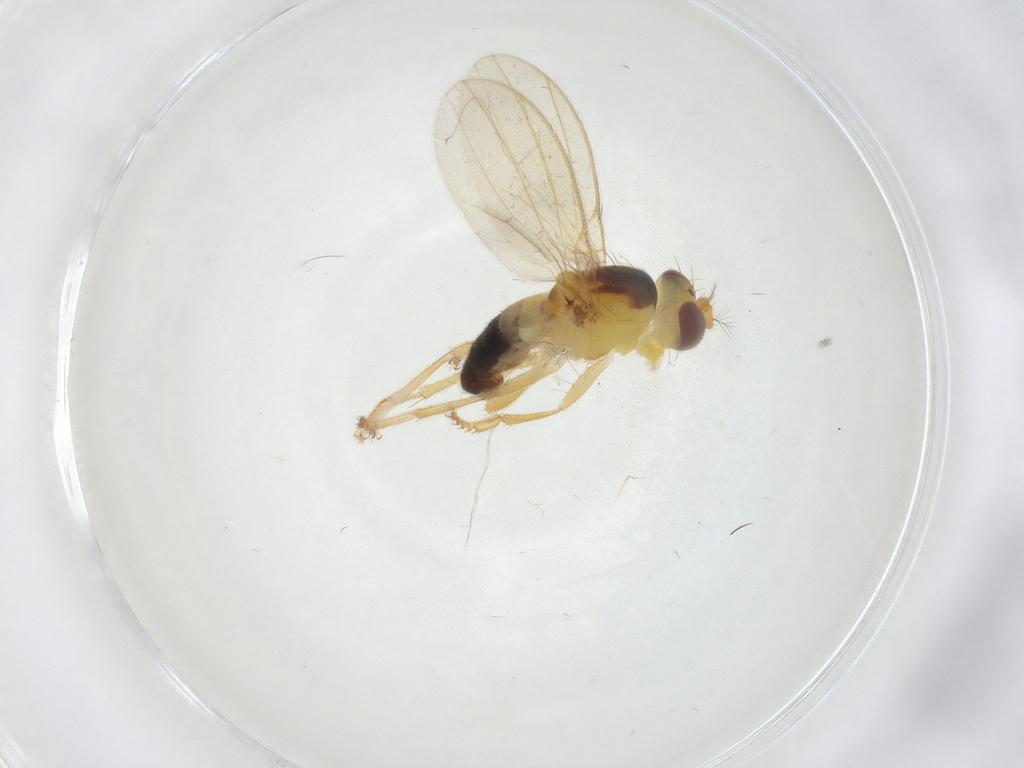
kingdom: Animalia
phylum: Arthropoda
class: Insecta
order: Diptera
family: Periscelididae
